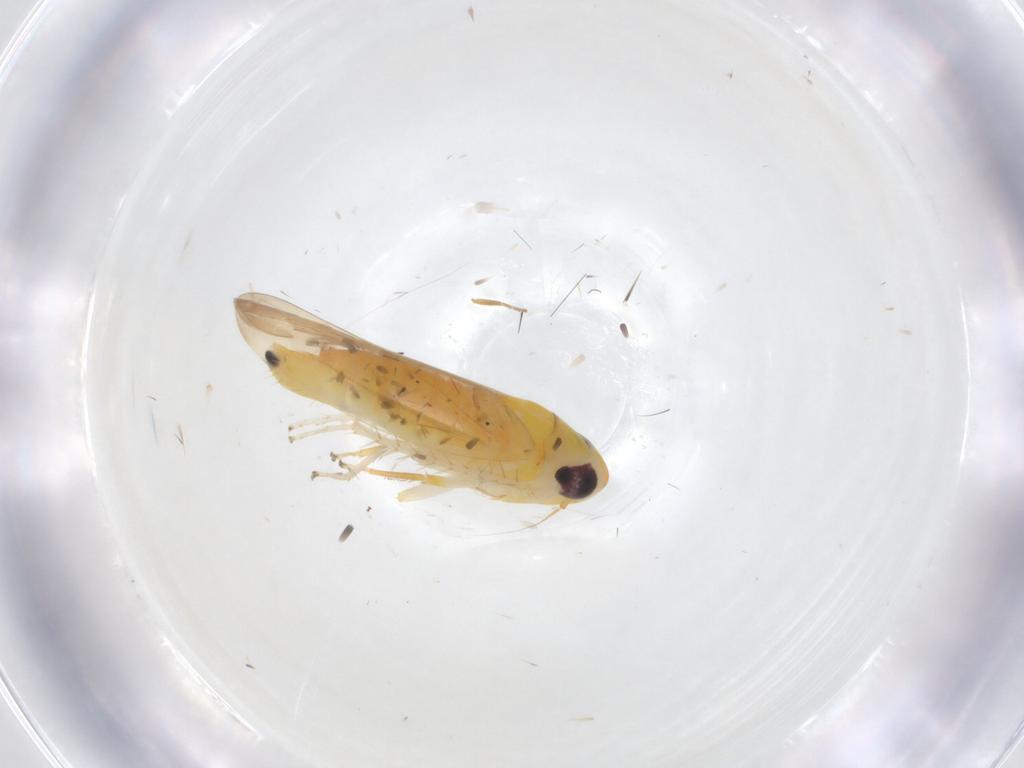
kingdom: Animalia
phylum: Arthropoda
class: Insecta
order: Hemiptera
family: Cicadellidae
